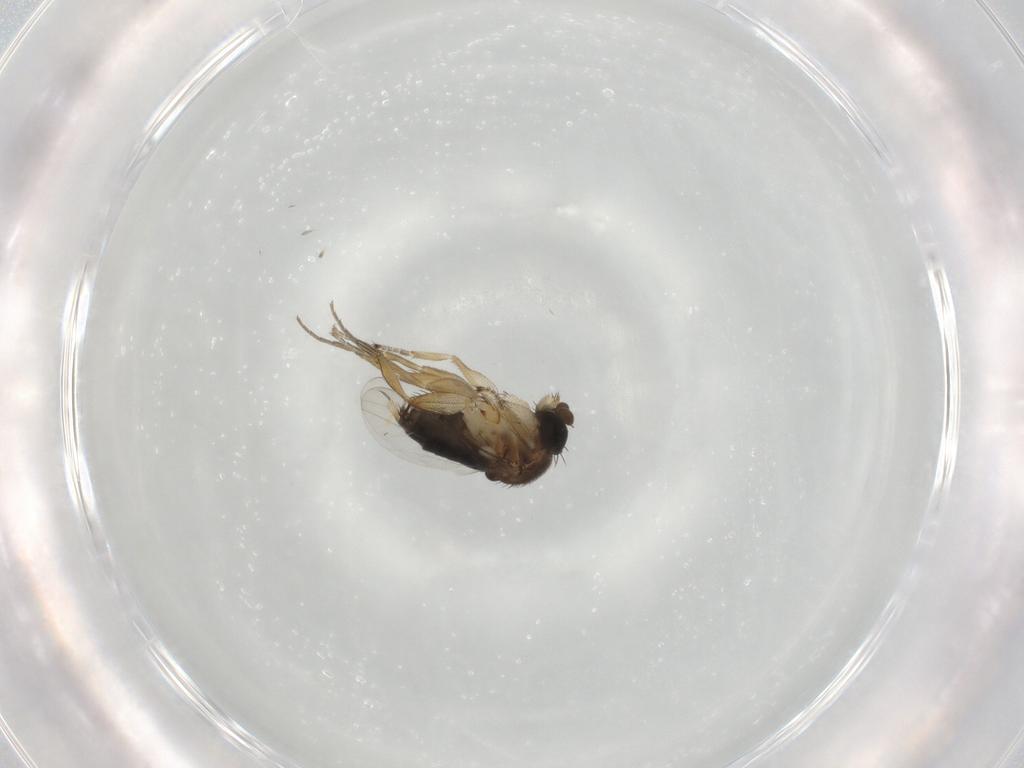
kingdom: Animalia
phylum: Arthropoda
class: Insecta
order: Diptera
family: Phoridae
